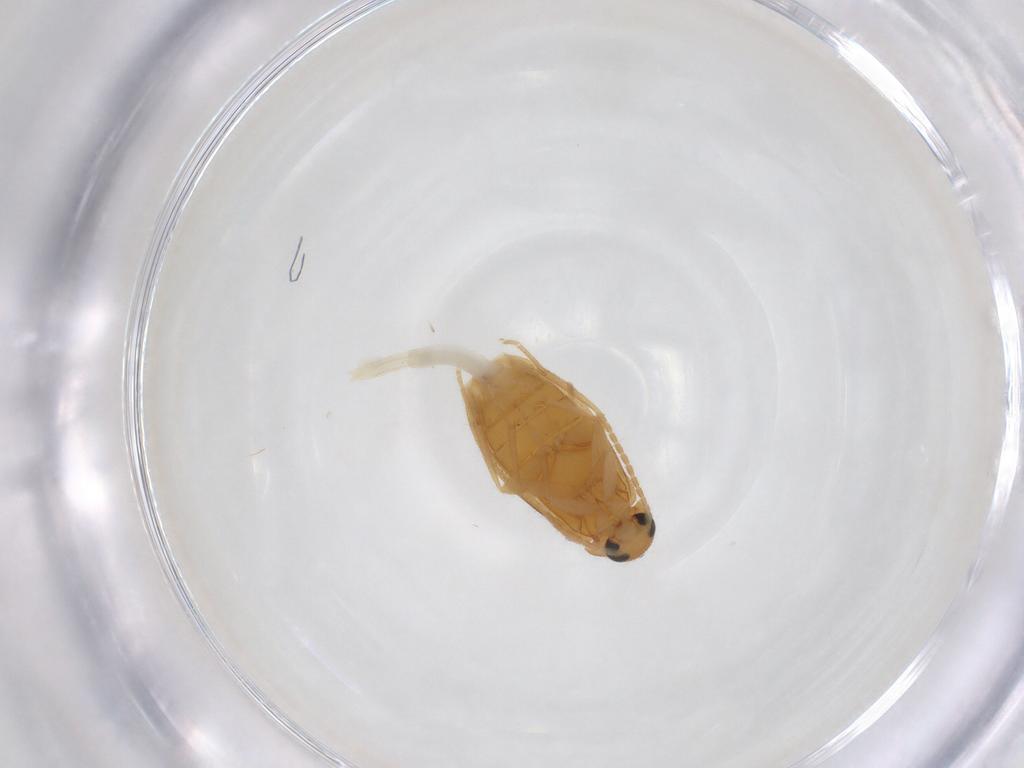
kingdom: Animalia
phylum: Arthropoda
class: Insecta
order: Coleoptera
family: Scraptiidae
